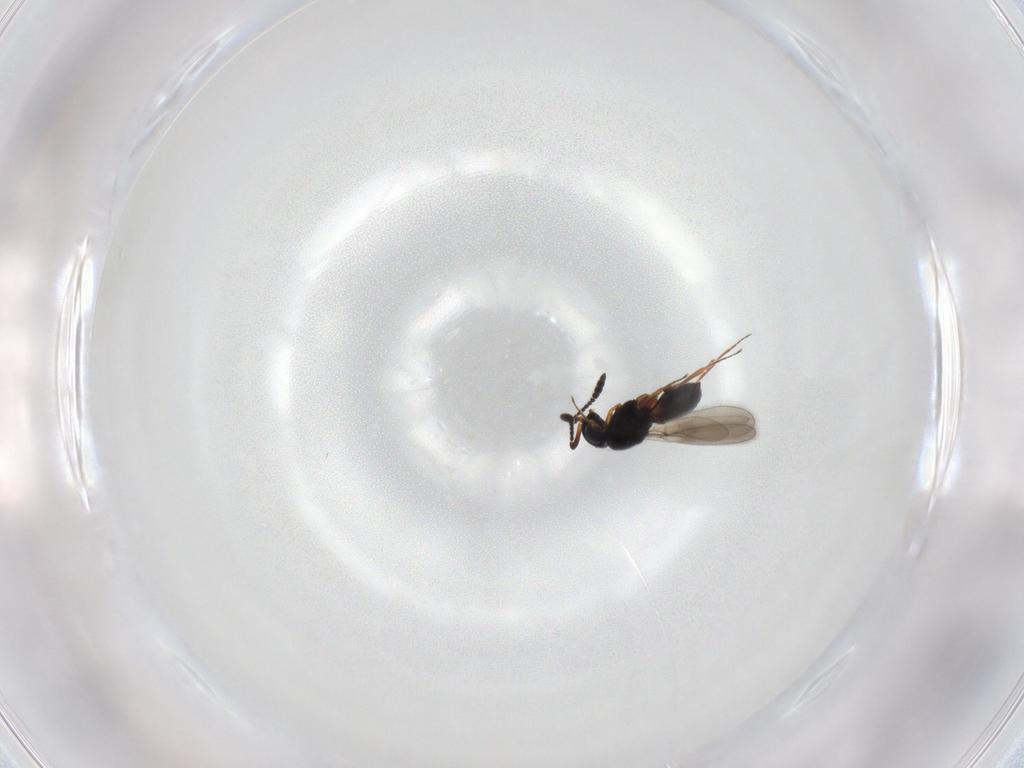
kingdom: Animalia
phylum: Arthropoda
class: Insecta
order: Hymenoptera
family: Scelionidae
